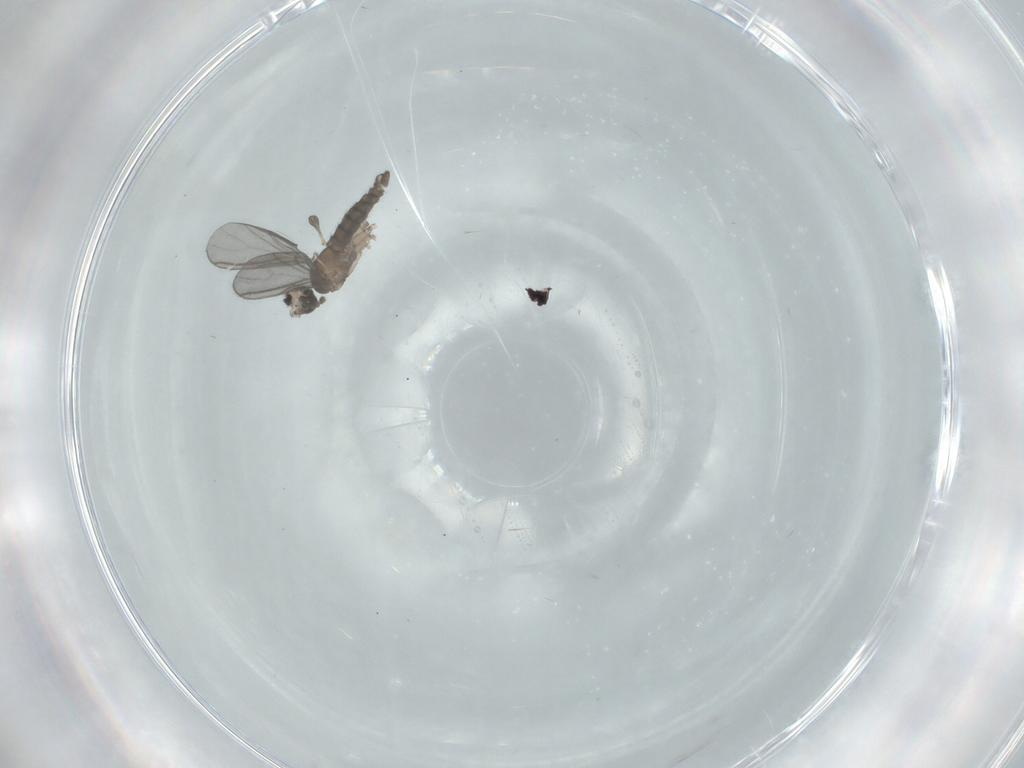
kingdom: Animalia
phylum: Arthropoda
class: Insecta
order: Diptera
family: Chironomidae
